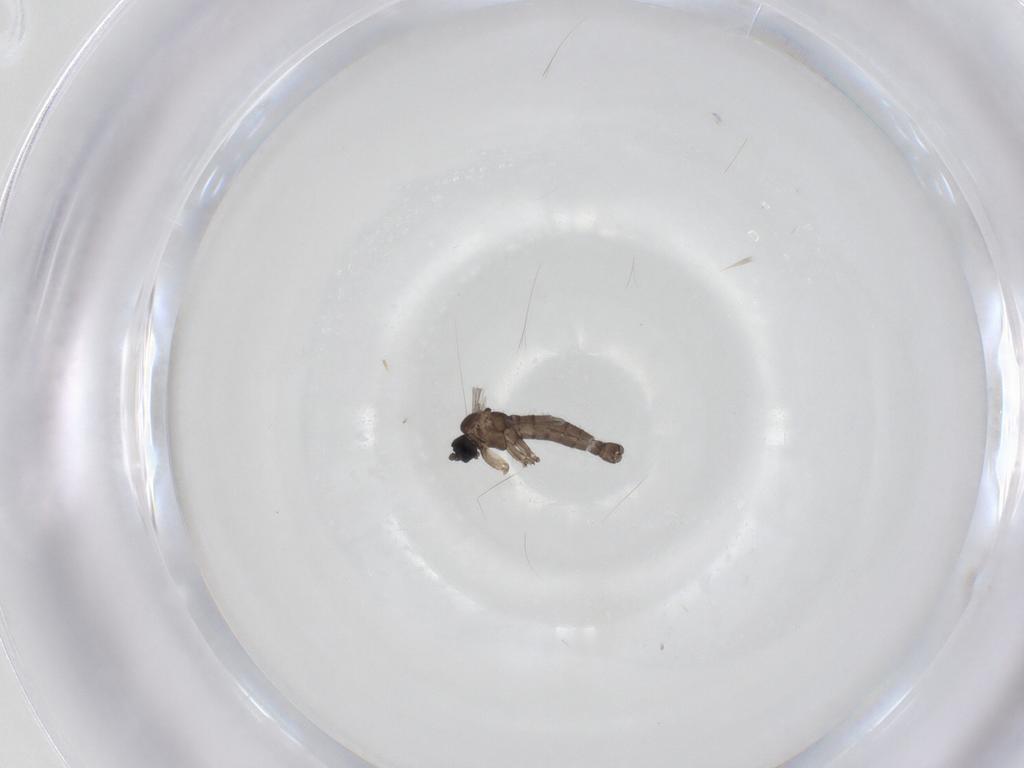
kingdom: Animalia
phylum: Arthropoda
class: Insecta
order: Diptera
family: Sciaridae
